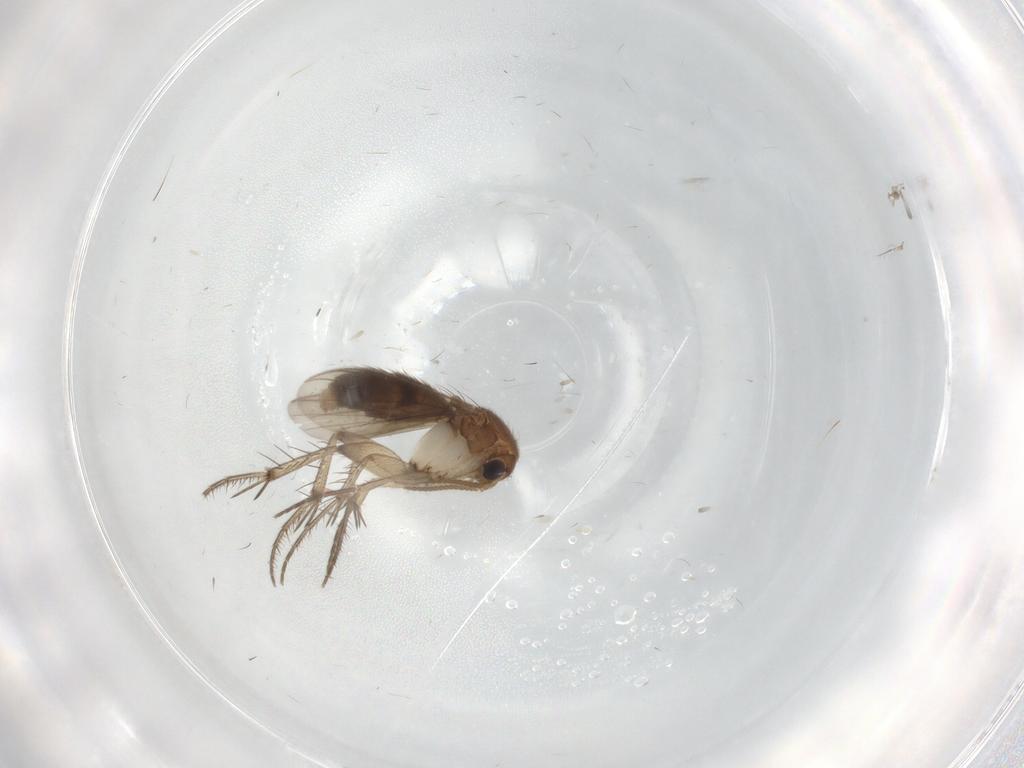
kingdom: Animalia
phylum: Arthropoda
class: Insecta
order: Diptera
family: Mycetophilidae
